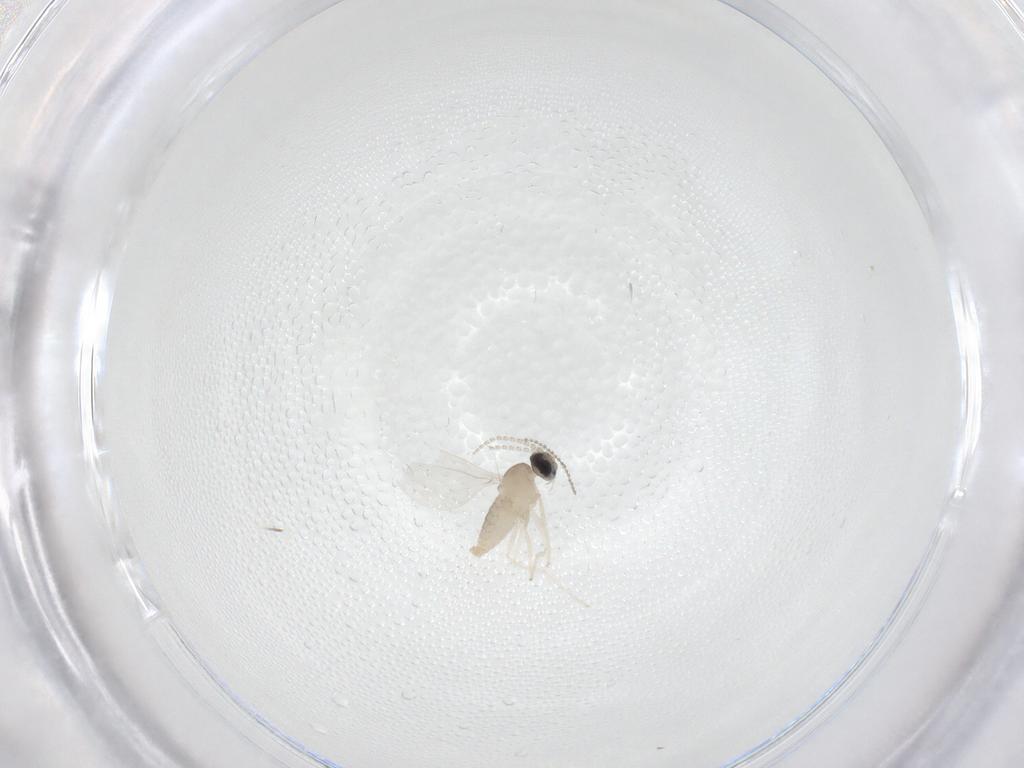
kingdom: Animalia
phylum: Arthropoda
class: Insecta
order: Diptera
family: Cecidomyiidae
